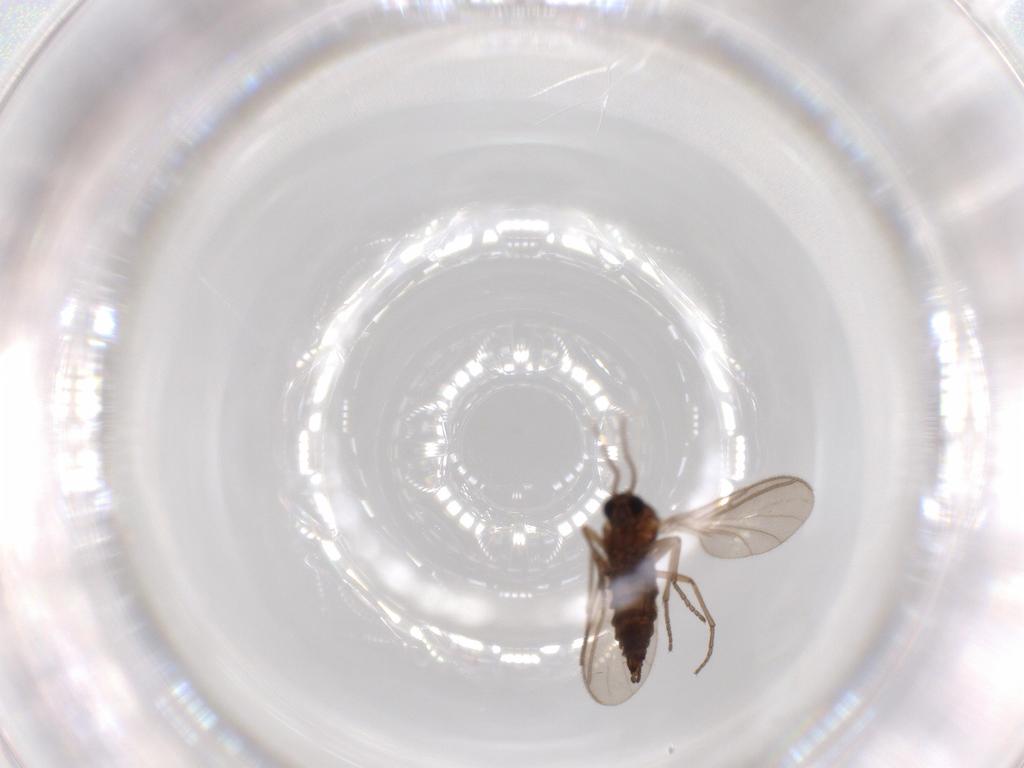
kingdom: Animalia
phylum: Arthropoda
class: Insecta
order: Diptera
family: Sciaridae
